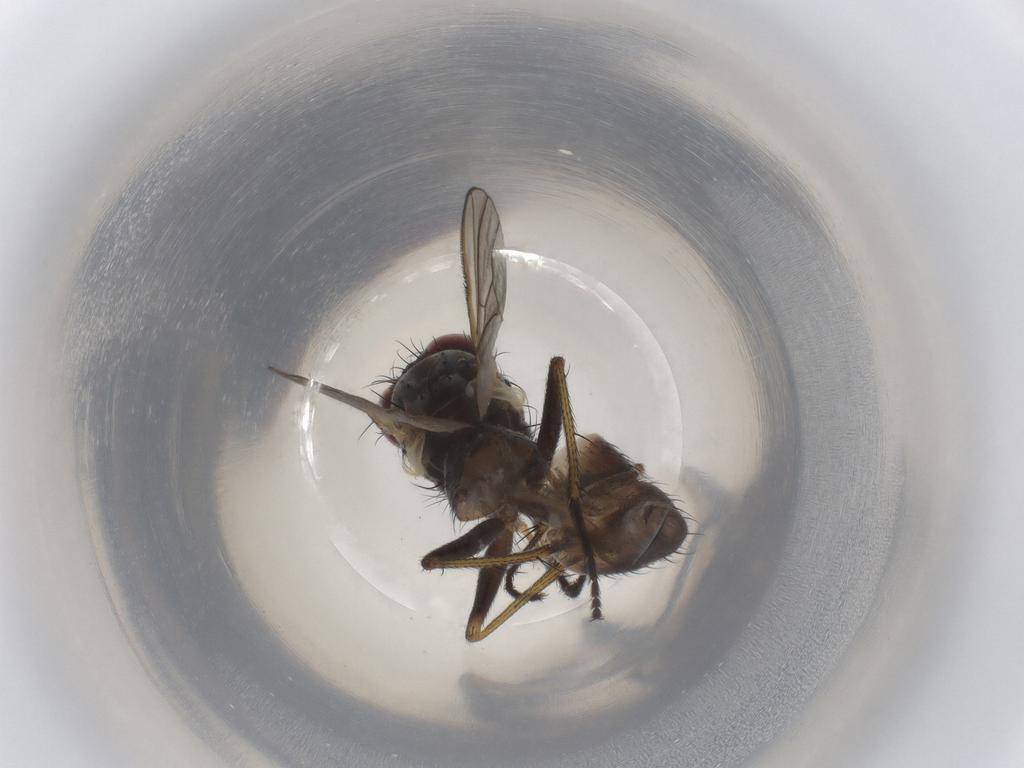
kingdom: Animalia
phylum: Arthropoda
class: Insecta
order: Diptera
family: Muscidae
